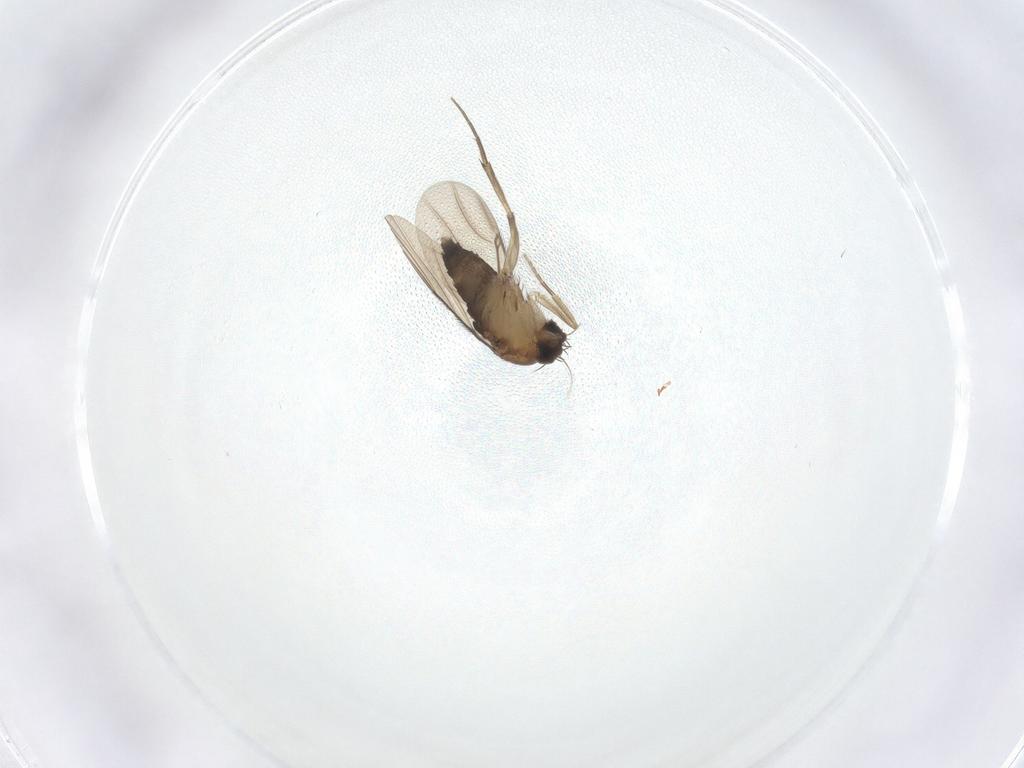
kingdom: Animalia
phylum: Arthropoda
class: Insecta
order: Diptera
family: Phoridae
